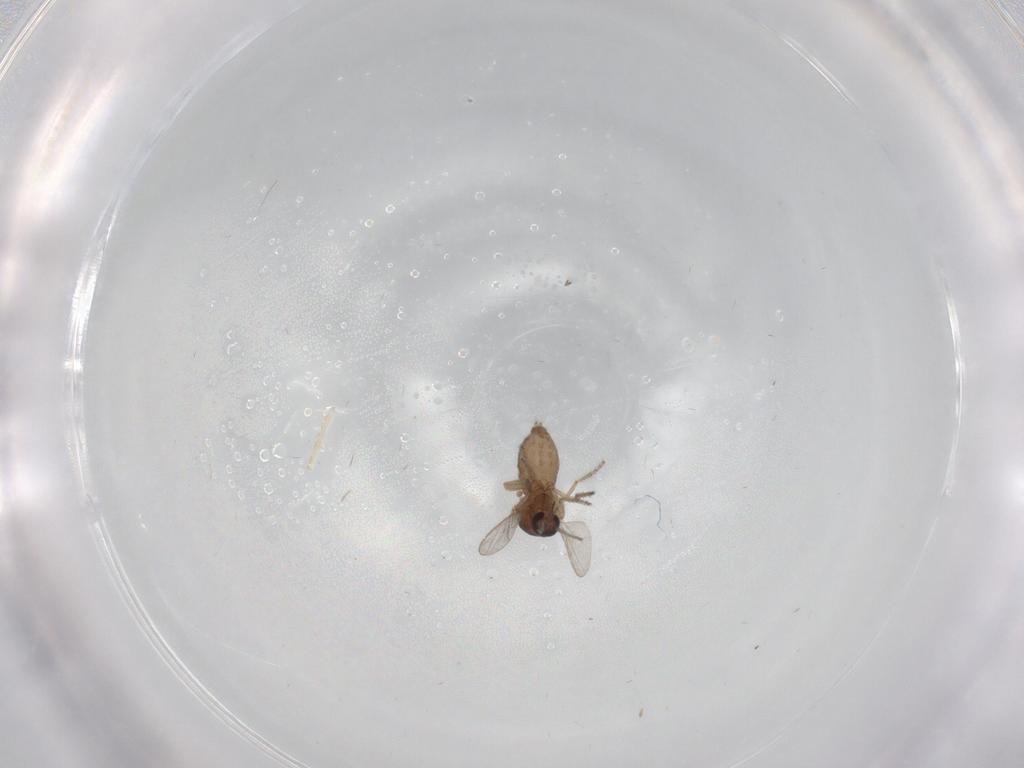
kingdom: Animalia
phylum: Arthropoda
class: Insecta
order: Diptera
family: Ceratopogonidae
